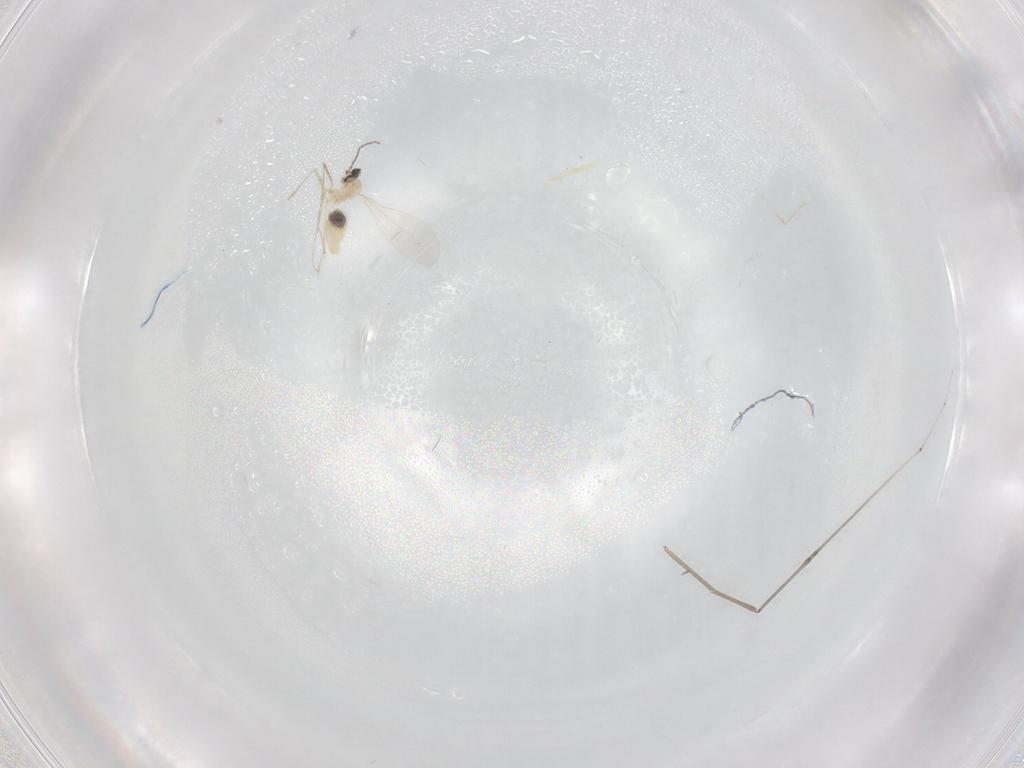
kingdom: Animalia
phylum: Arthropoda
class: Insecta
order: Diptera
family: Cecidomyiidae
